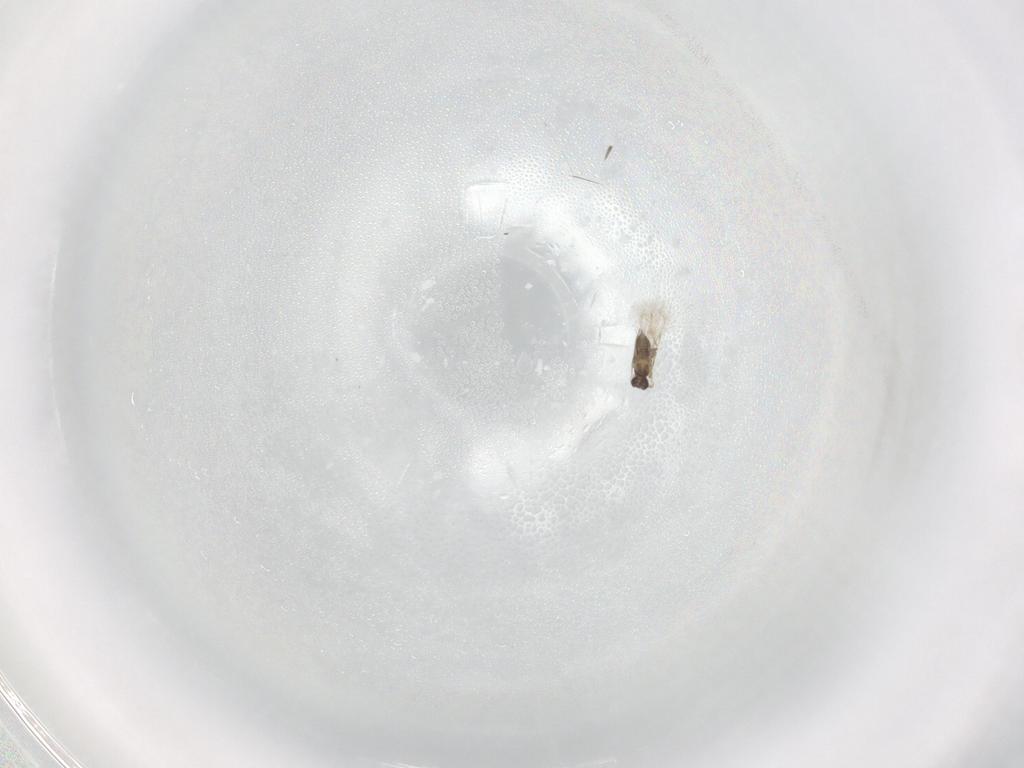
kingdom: Animalia
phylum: Arthropoda
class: Insecta
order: Hymenoptera
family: Mymaridae
